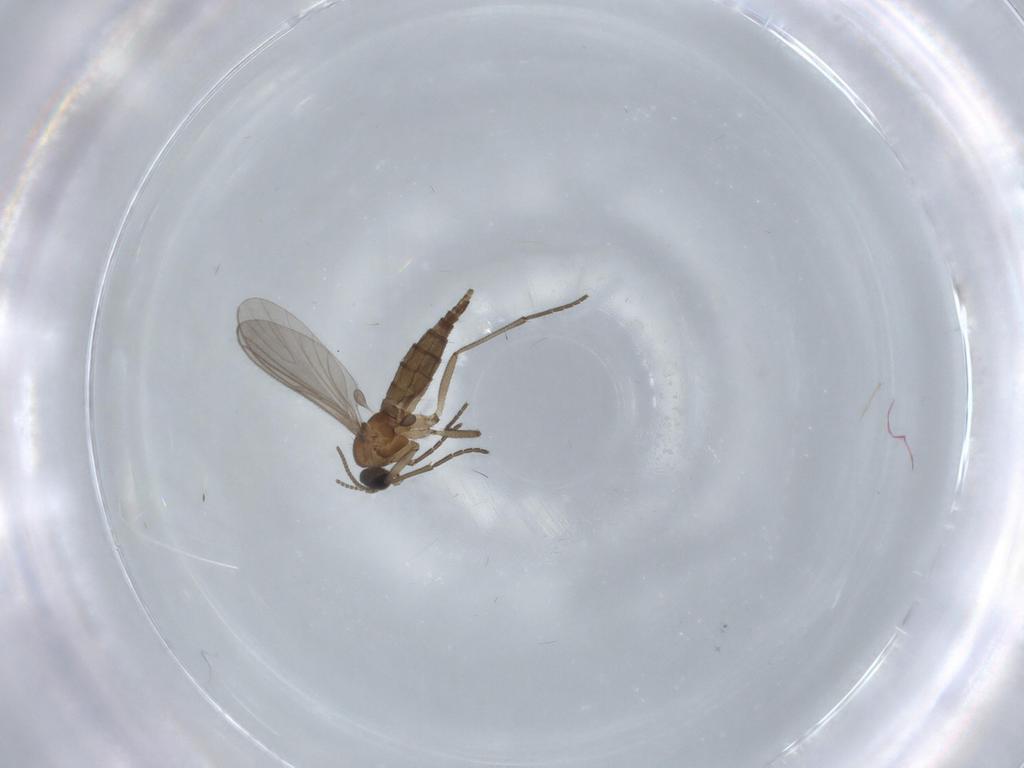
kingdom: Animalia
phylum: Arthropoda
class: Insecta
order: Diptera
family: Sciaridae
